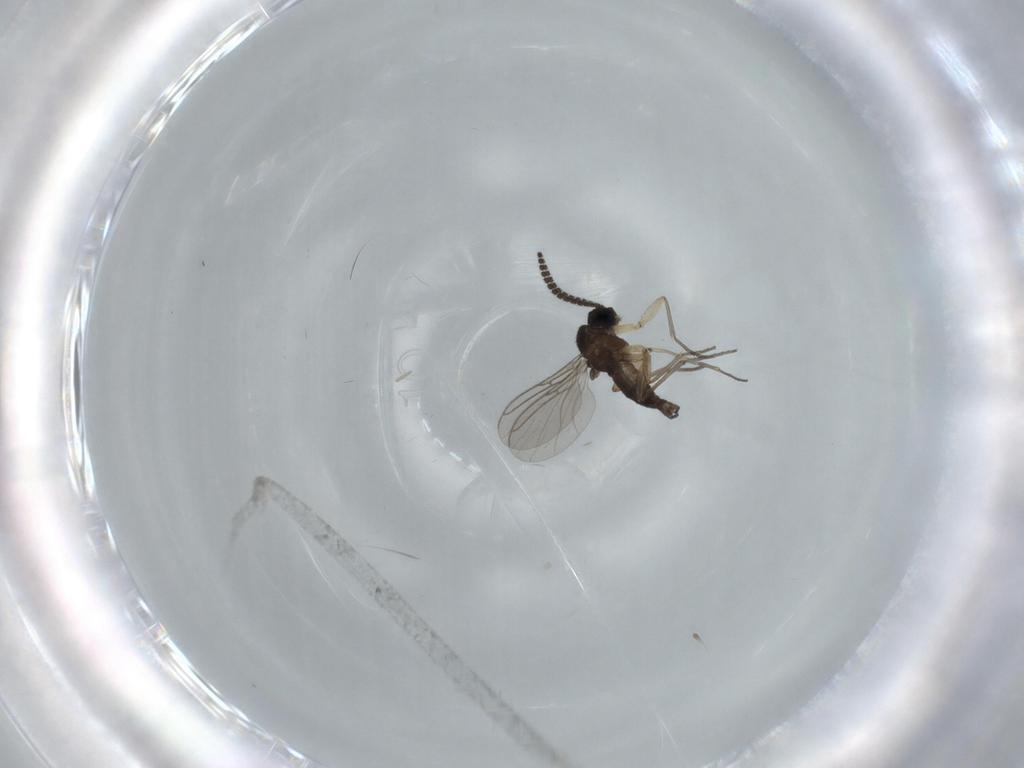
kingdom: Animalia
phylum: Arthropoda
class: Insecta
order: Diptera
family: Sciaridae
